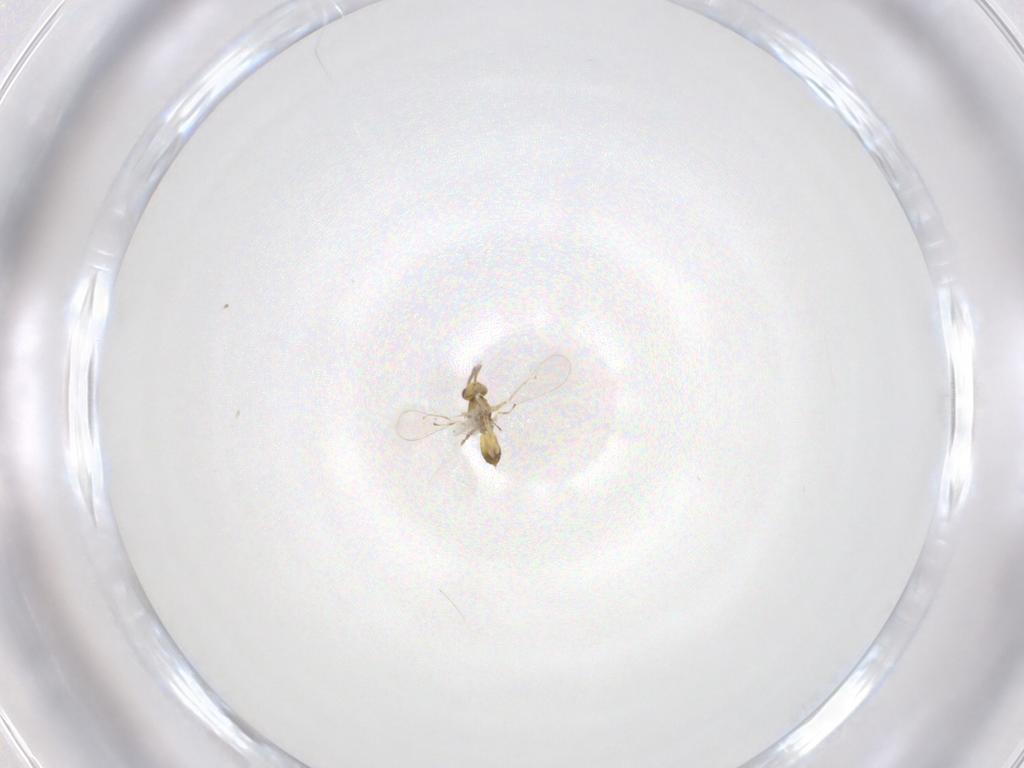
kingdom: Animalia
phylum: Arthropoda
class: Insecta
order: Hymenoptera
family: Eulophidae
